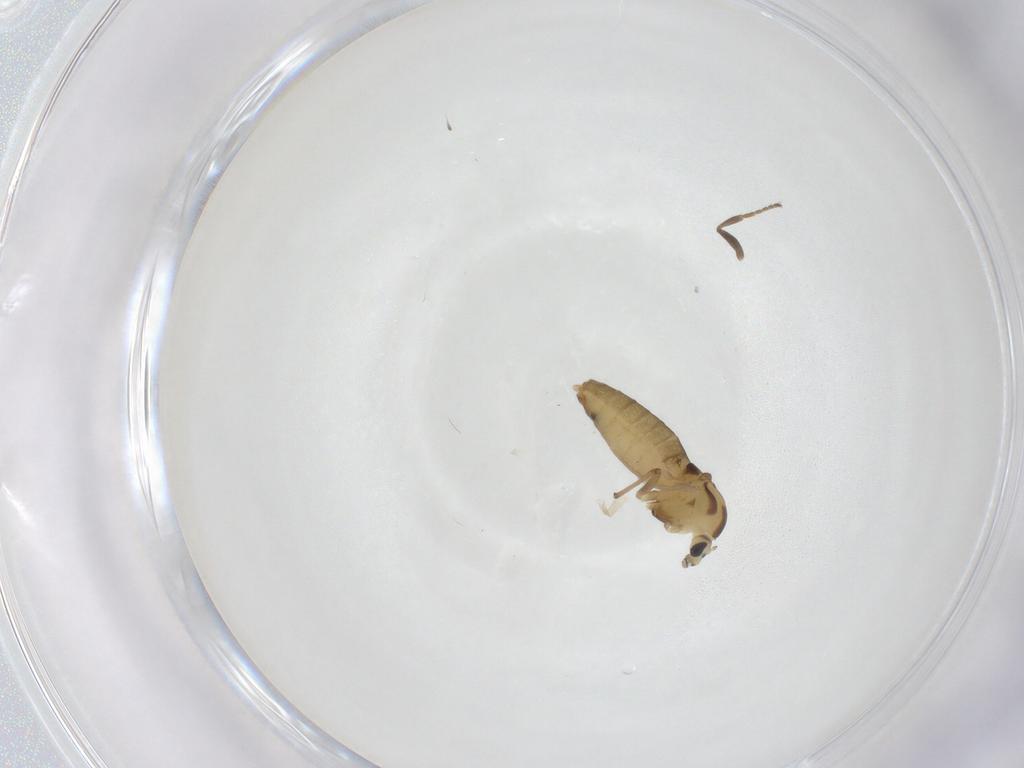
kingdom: Animalia
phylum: Arthropoda
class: Insecta
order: Diptera
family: Chironomidae
